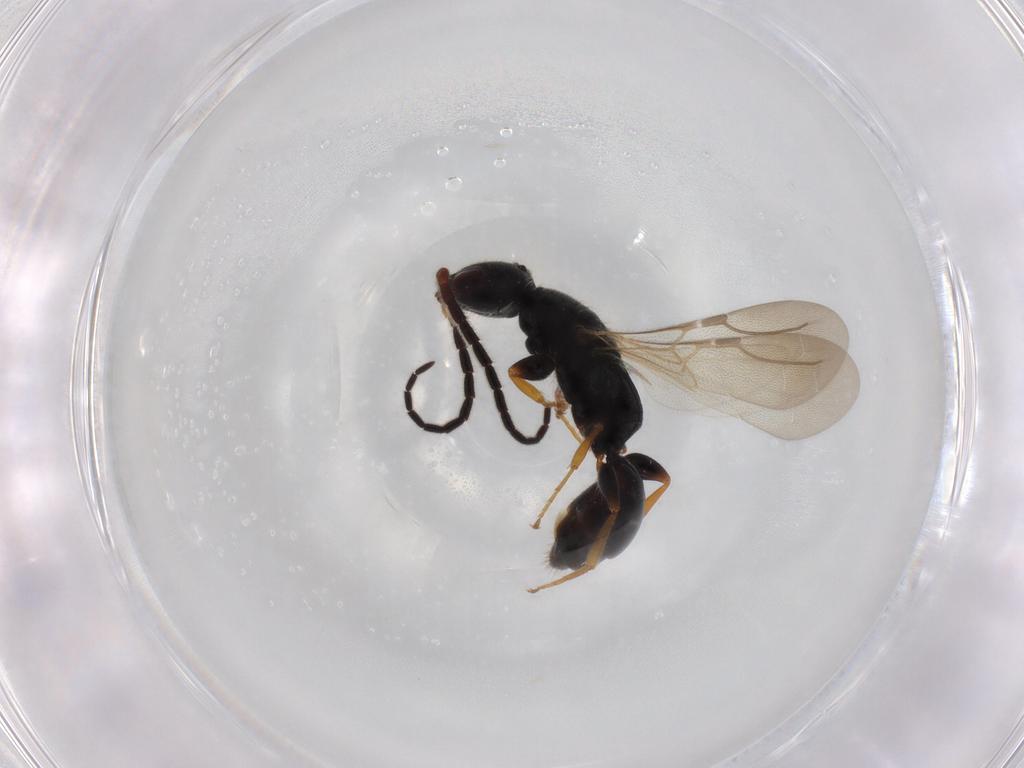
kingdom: Animalia
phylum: Arthropoda
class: Insecta
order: Hymenoptera
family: Bethylidae
